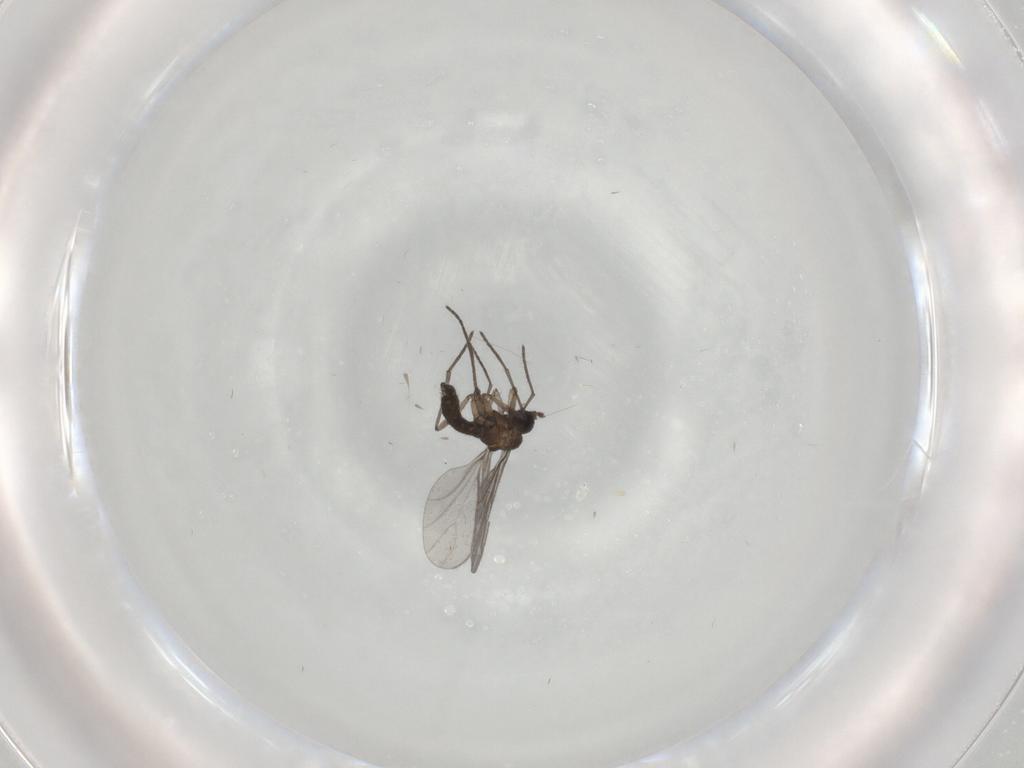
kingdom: Animalia
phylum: Arthropoda
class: Insecta
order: Diptera
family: Sciaridae
